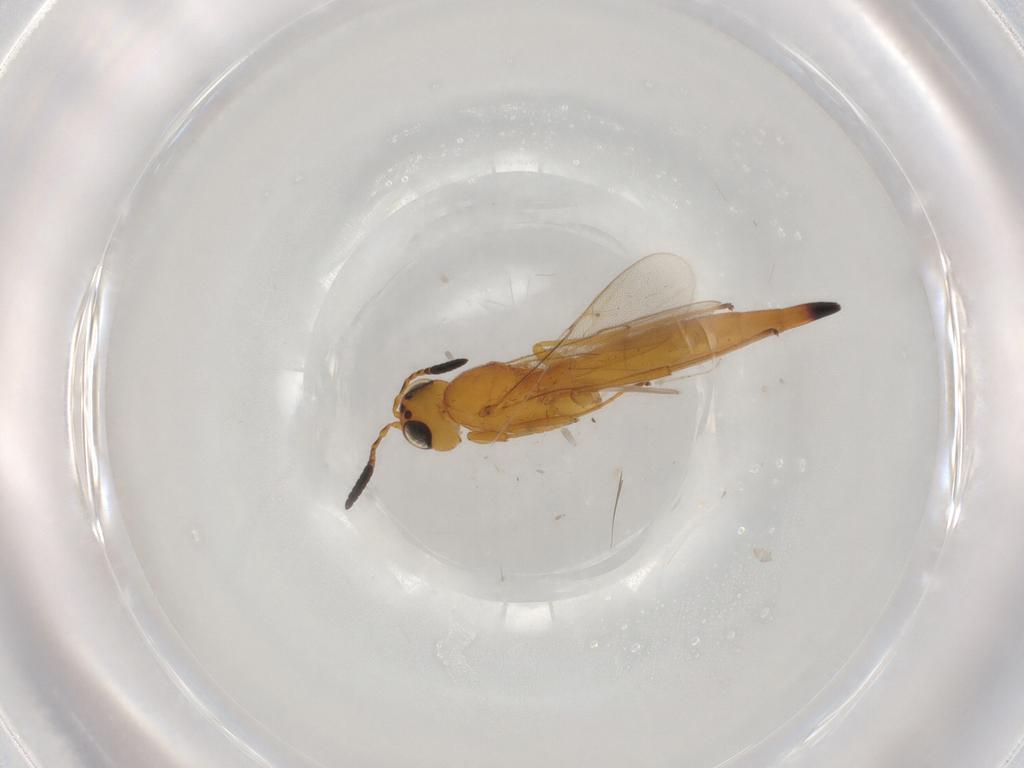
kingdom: Animalia
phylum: Arthropoda
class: Insecta
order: Hymenoptera
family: Scelionidae
